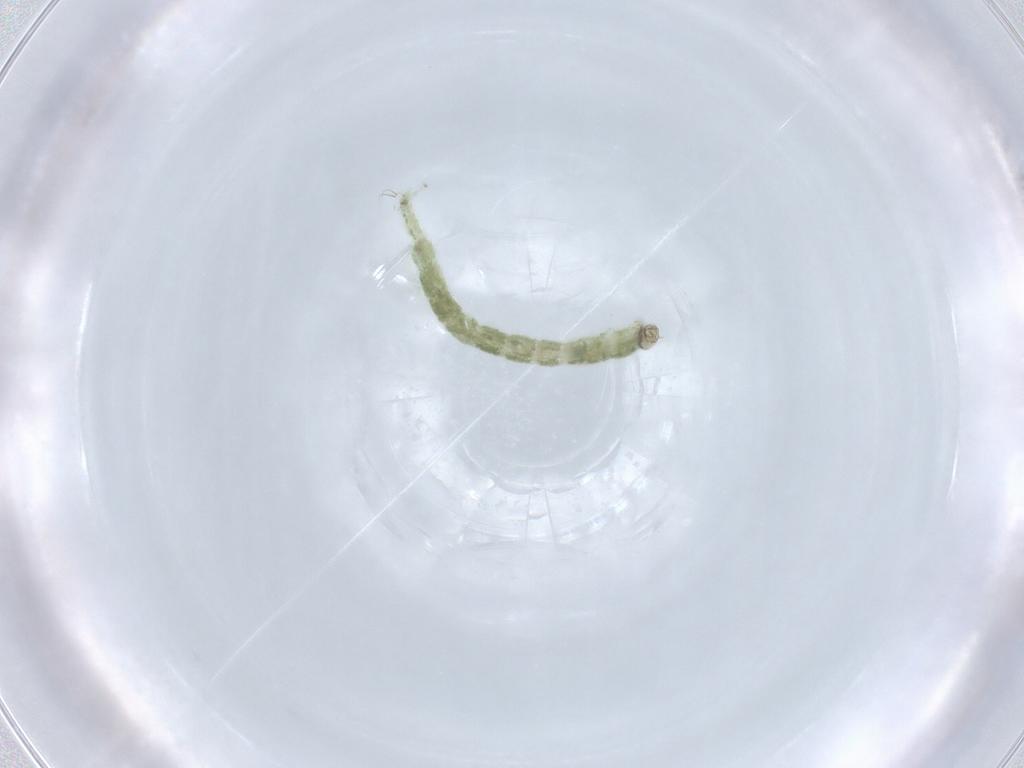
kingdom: Animalia
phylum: Arthropoda
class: Insecta
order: Diptera
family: Chironomidae
